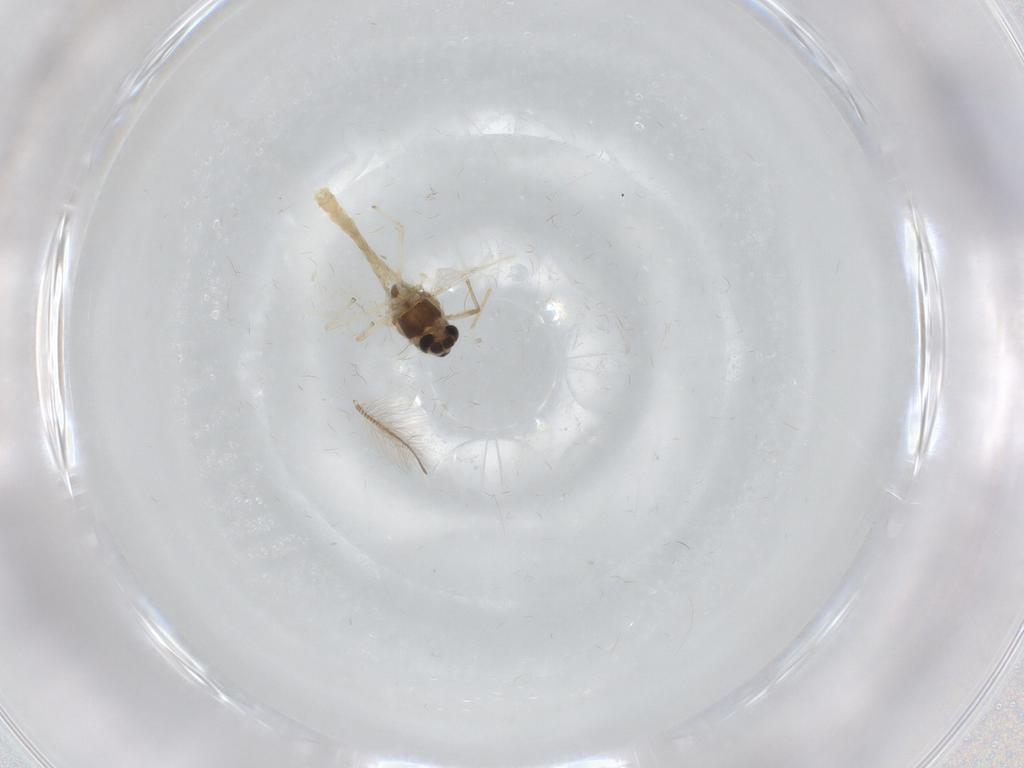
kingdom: Animalia
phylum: Arthropoda
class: Insecta
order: Diptera
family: Chironomidae
